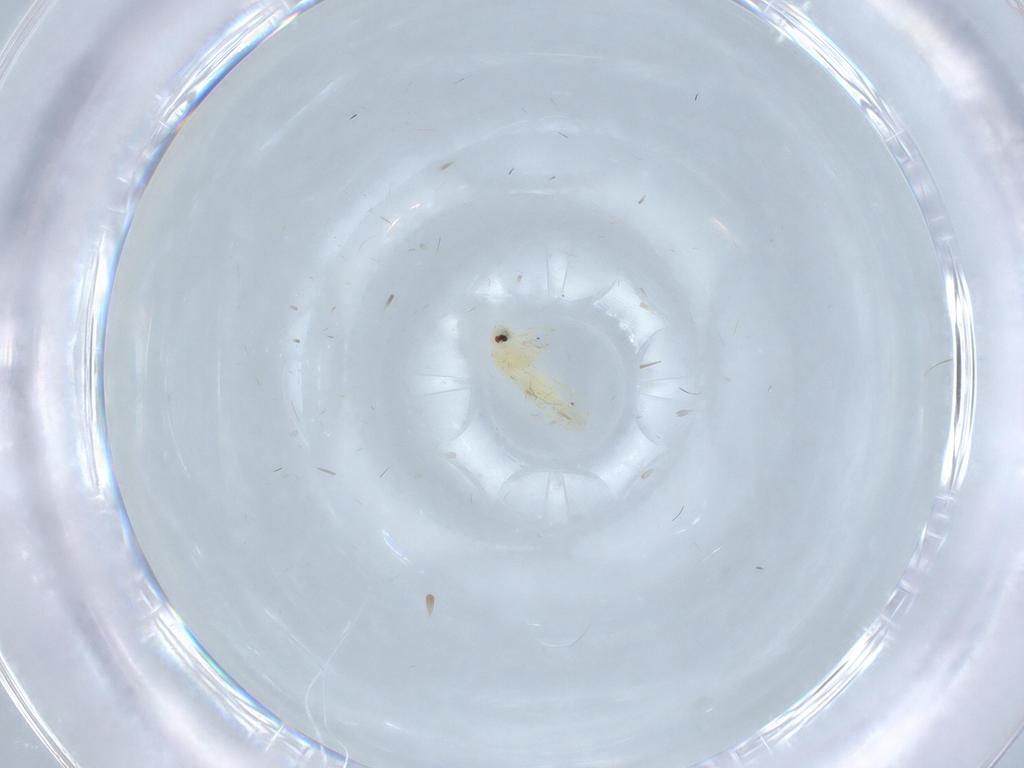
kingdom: Animalia
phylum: Arthropoda
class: Insecta
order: Hemiptera
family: Aleyrodidae
